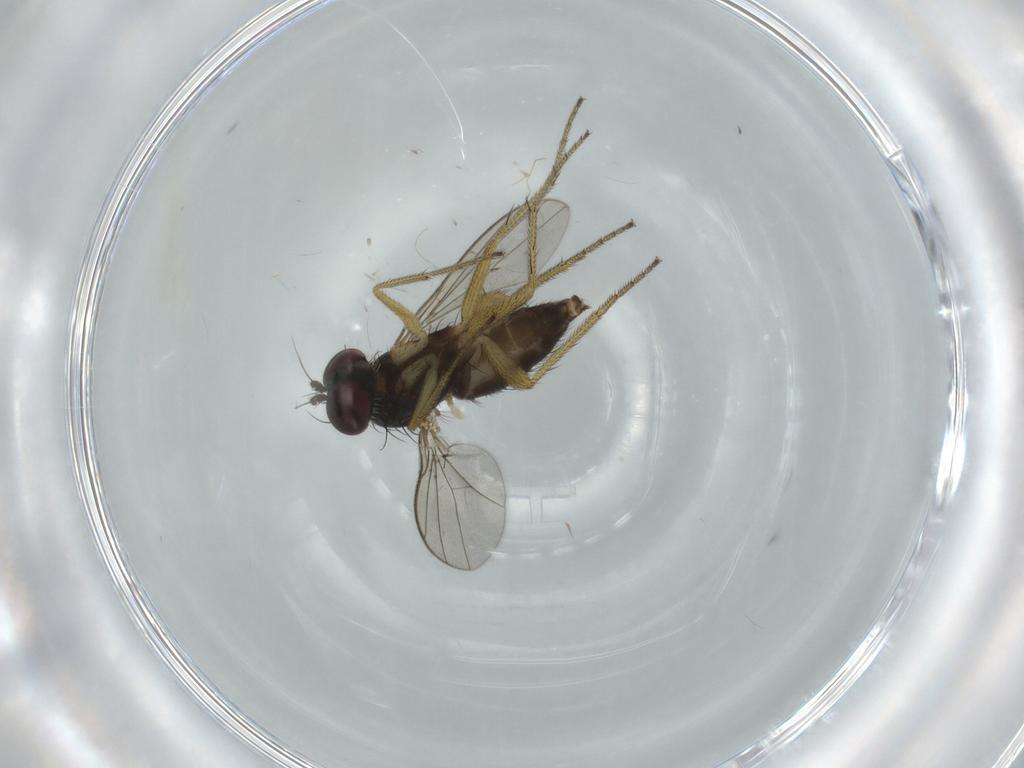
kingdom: Animalia
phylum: Arthropoda
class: Insecta
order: Diptera
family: Dolichopodidae
